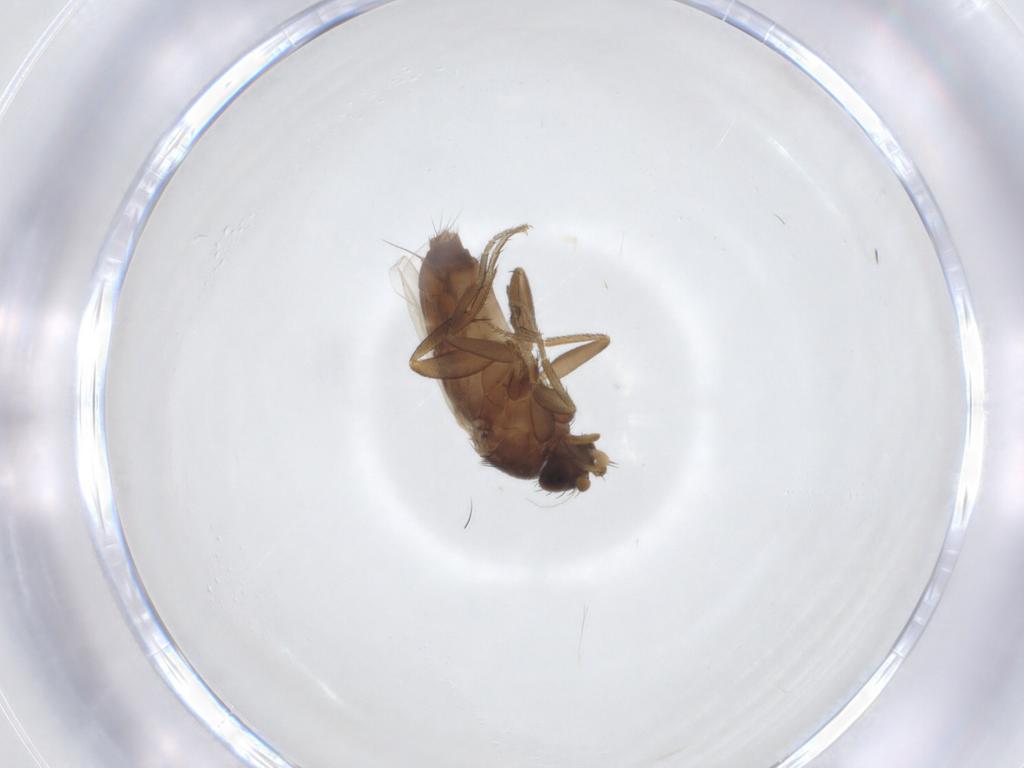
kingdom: Animalia
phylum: Arthropoda
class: Insecta
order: Diptera
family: Phoridae
